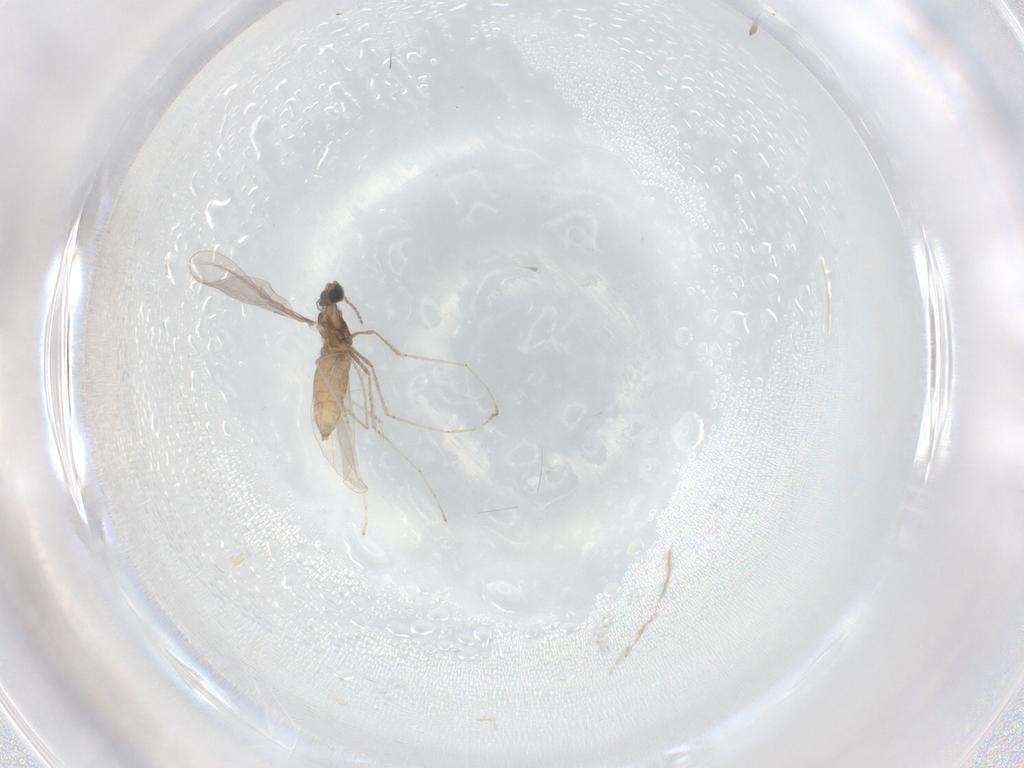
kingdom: Animalia
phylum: Arthropoda
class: Insecta
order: Diptera
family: Cecidomyiidae
